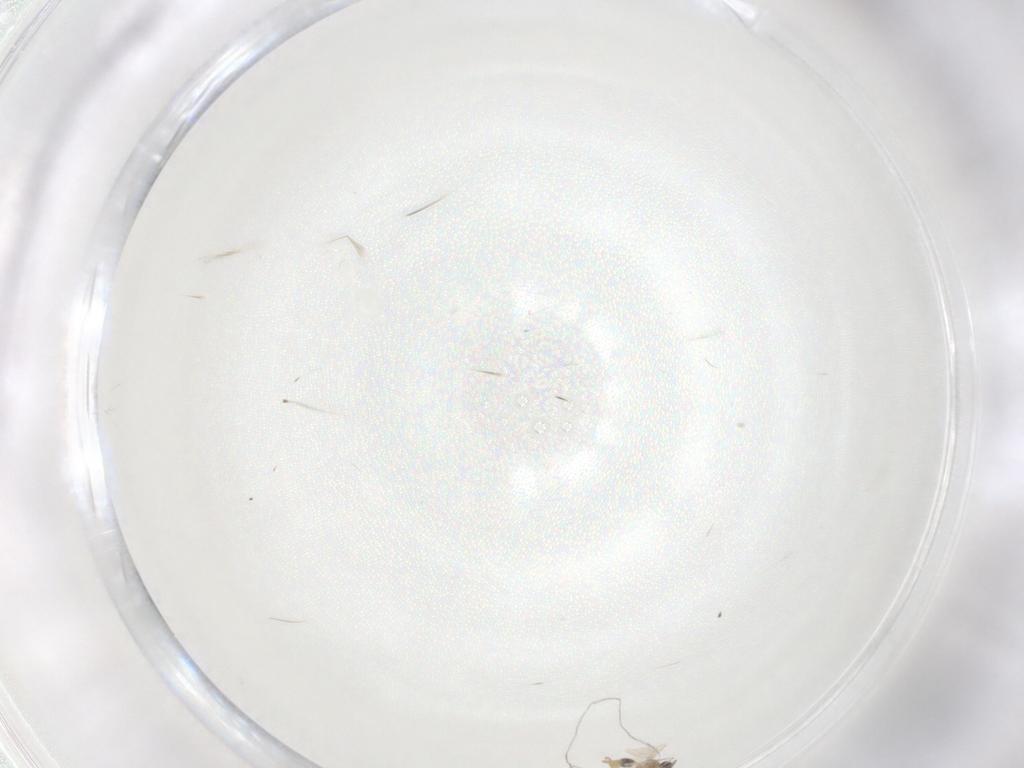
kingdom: Animalia
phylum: Arthropoda
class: Insecta
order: Diptera
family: Cecidomyiidae
